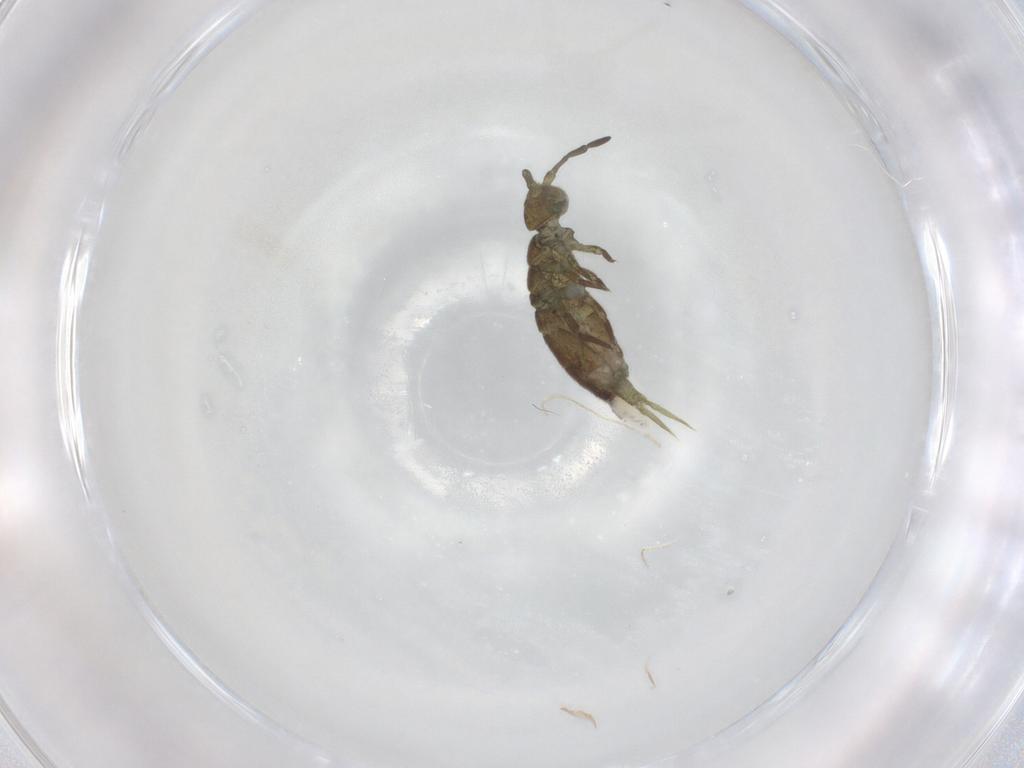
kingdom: Animalia
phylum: Arthropoda
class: Collembola
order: Entomobryomorpha
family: Isotomidae
